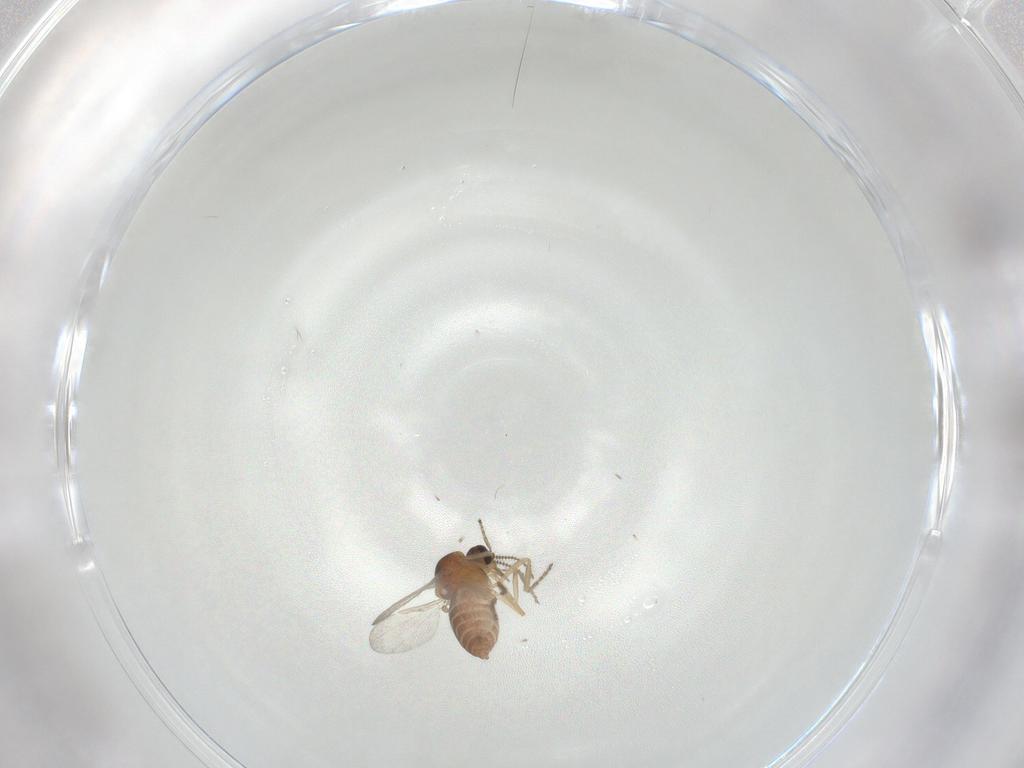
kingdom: Animalia
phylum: Arthropoda
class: Insecta
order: Diptera
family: Ceratopogonidae
